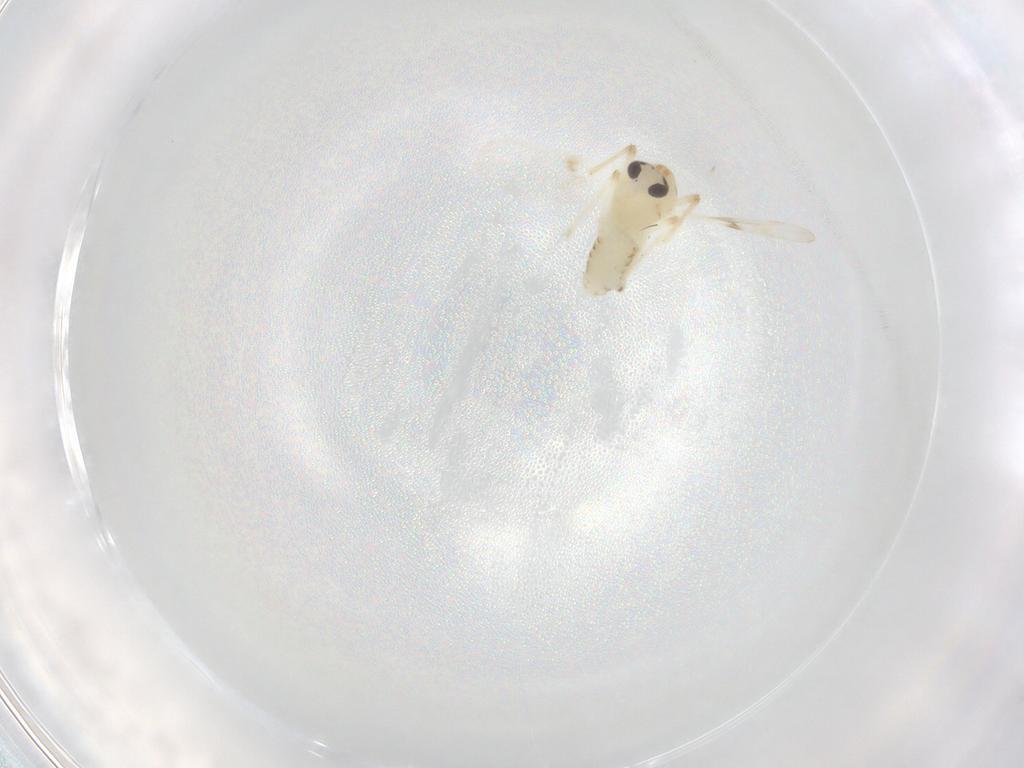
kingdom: Animalia
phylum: Arthropoda
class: Insecta
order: Diptera
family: Chironomidae
